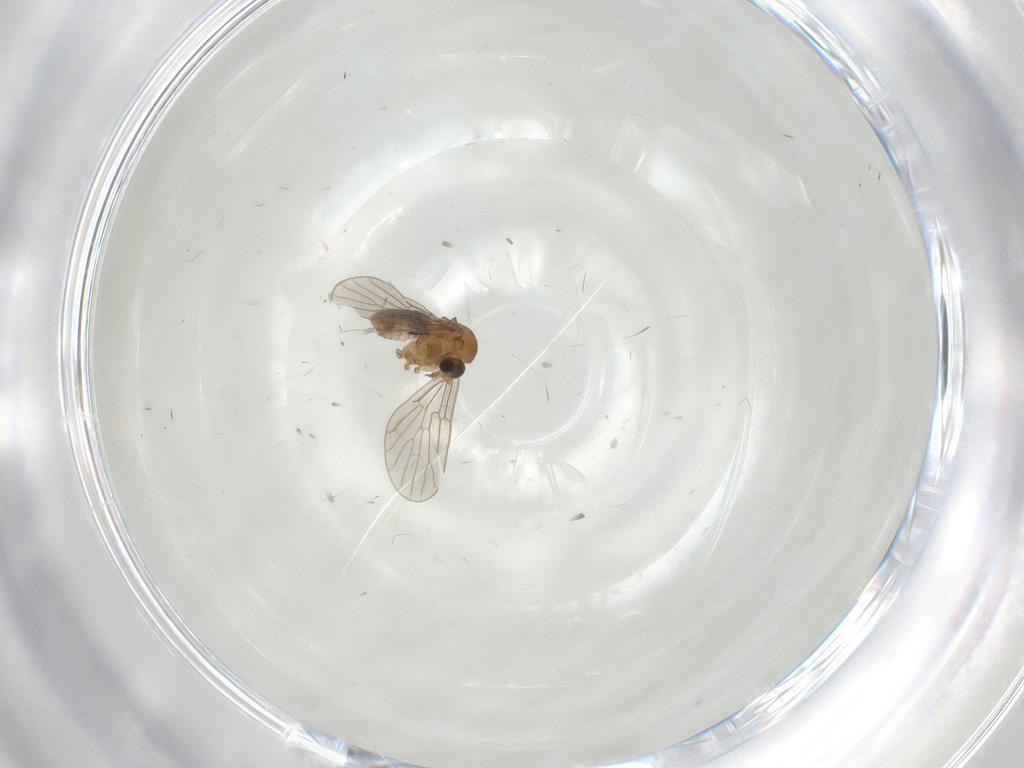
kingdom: Animalia
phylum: Arthropoda
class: Insecta
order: Diptera
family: Psychodidae
